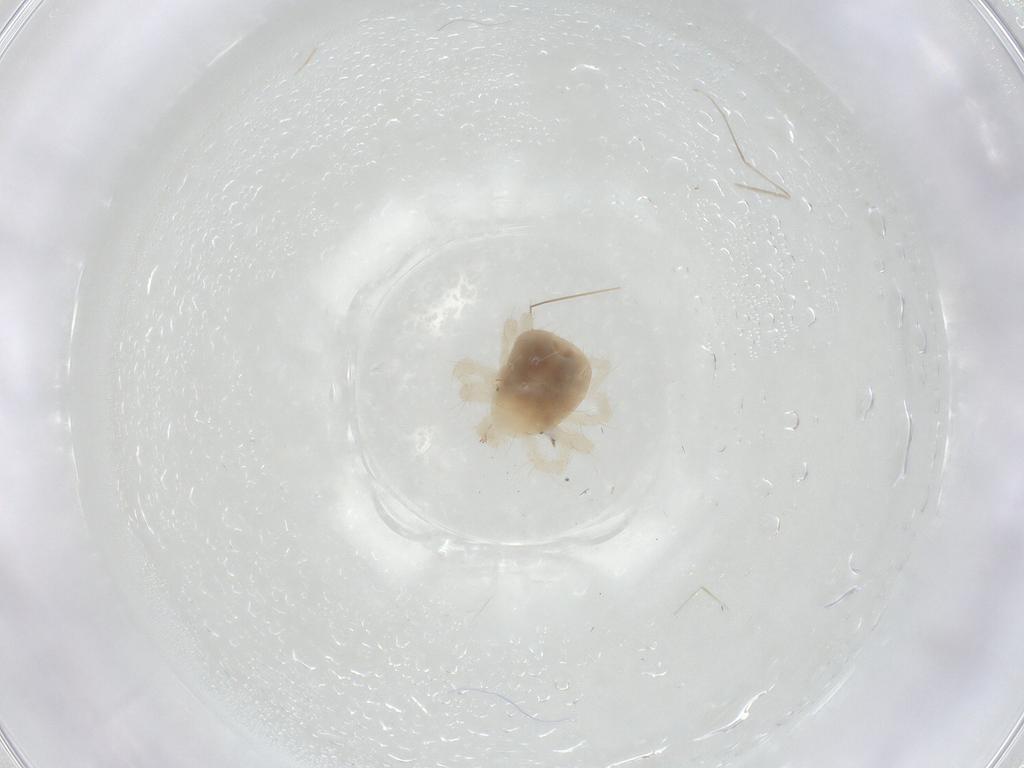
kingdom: Animalia
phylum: Arthropoda
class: Arachnida
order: Trombidiformes
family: Anystidae
